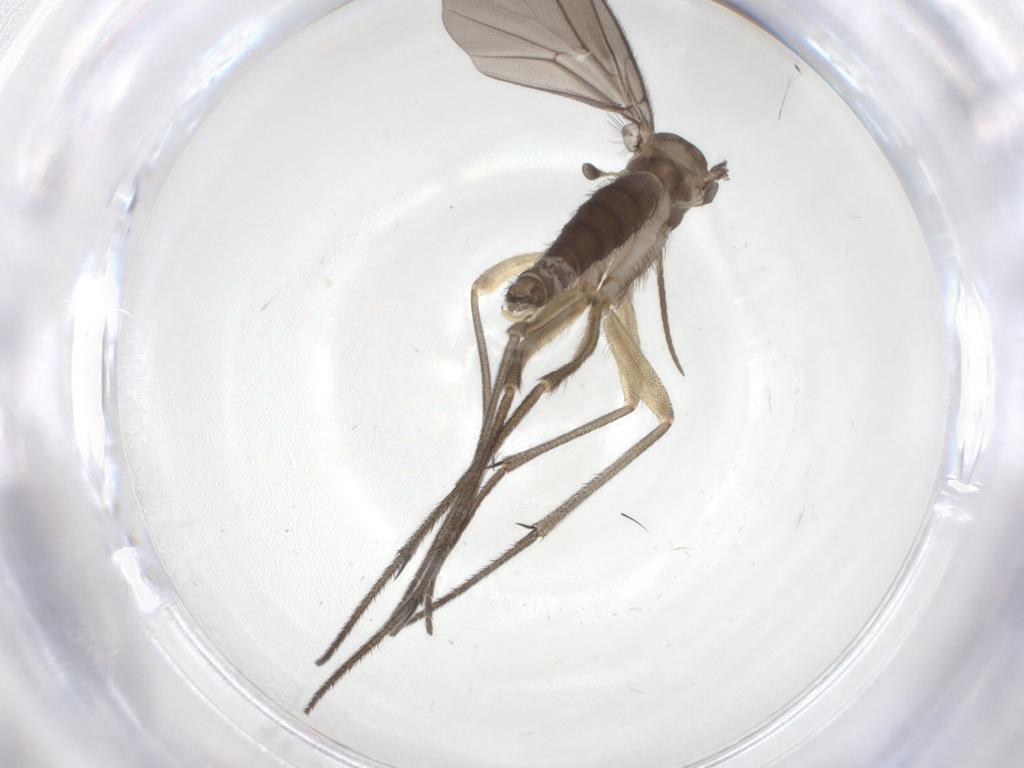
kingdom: Animalia
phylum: Arthropoda
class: Insecta
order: Diptera
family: Cecidomyiidae
